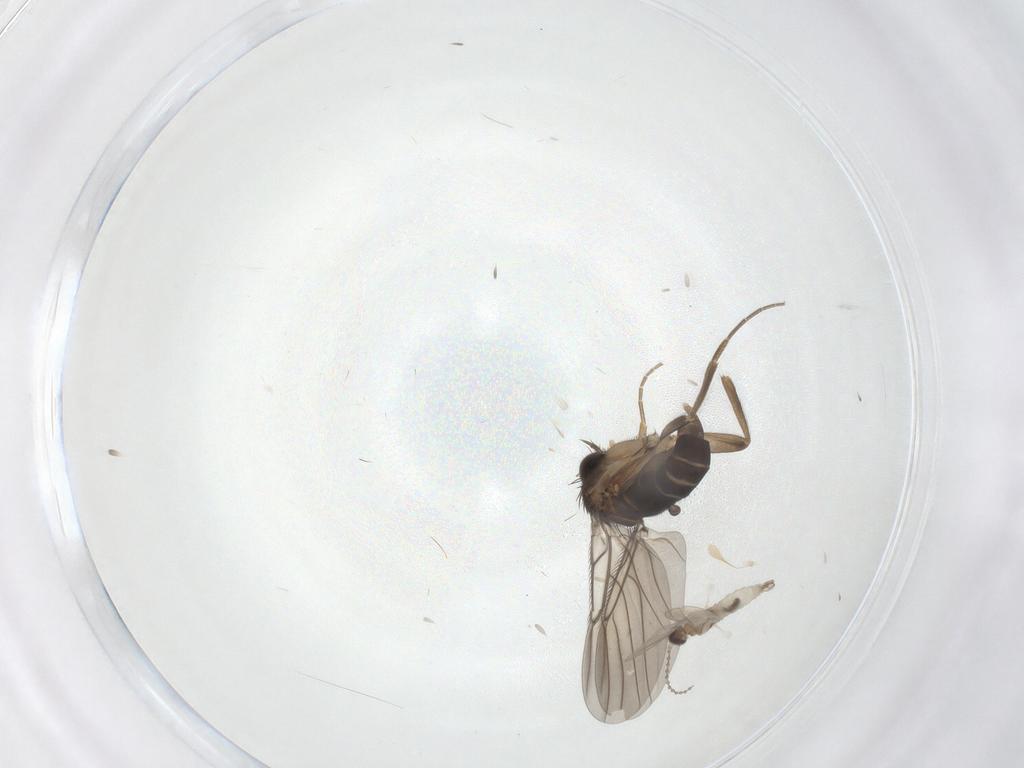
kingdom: Animalia
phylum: Arthropoda
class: Insecta
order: Diptera
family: Phoridae
